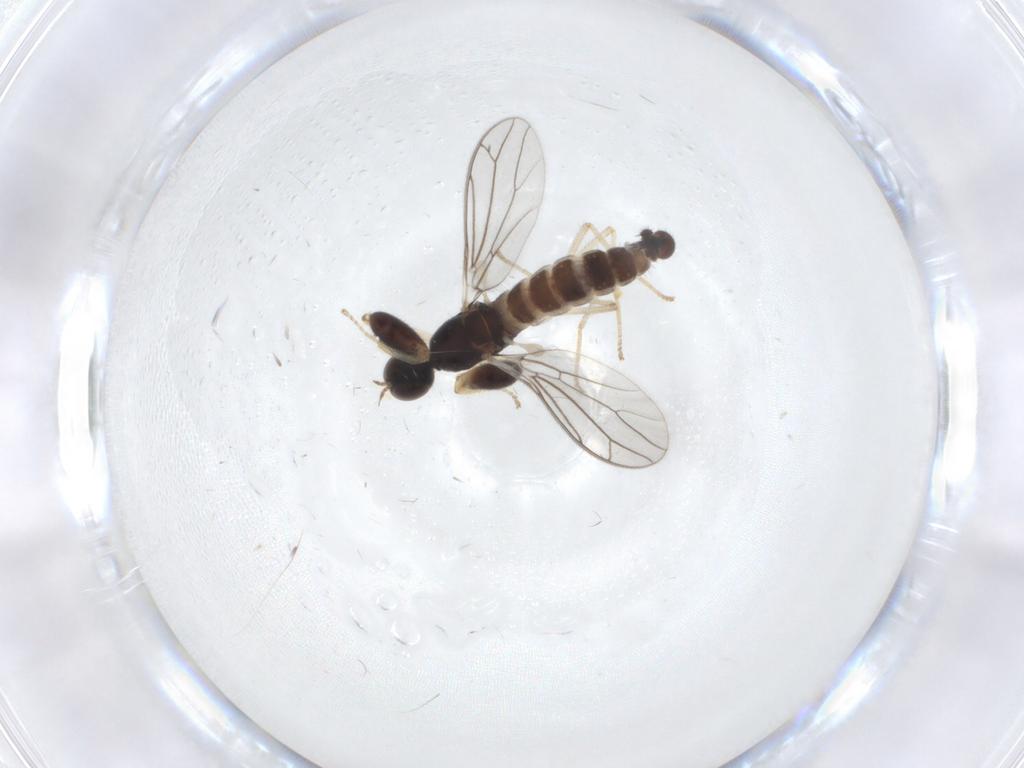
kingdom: Animalia
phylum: Arthropoda
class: Insecta
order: Diptera
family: Empididae
